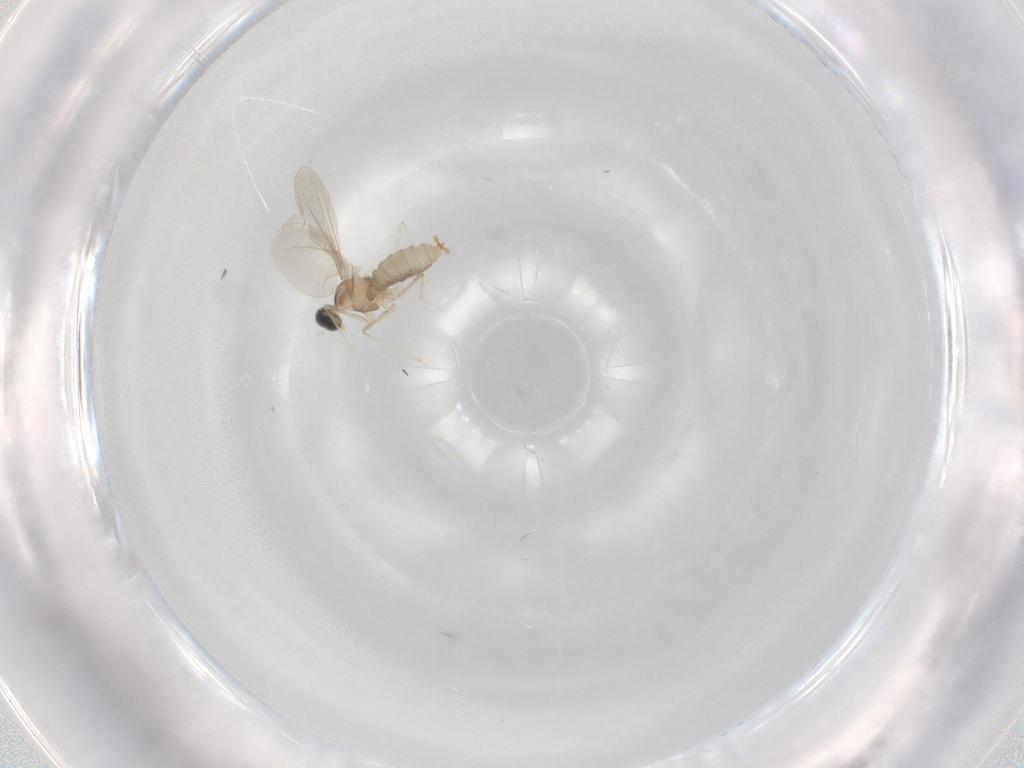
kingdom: Animalia
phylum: Arthropoda
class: Insecta
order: Diptera
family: Cecidomyiidae
